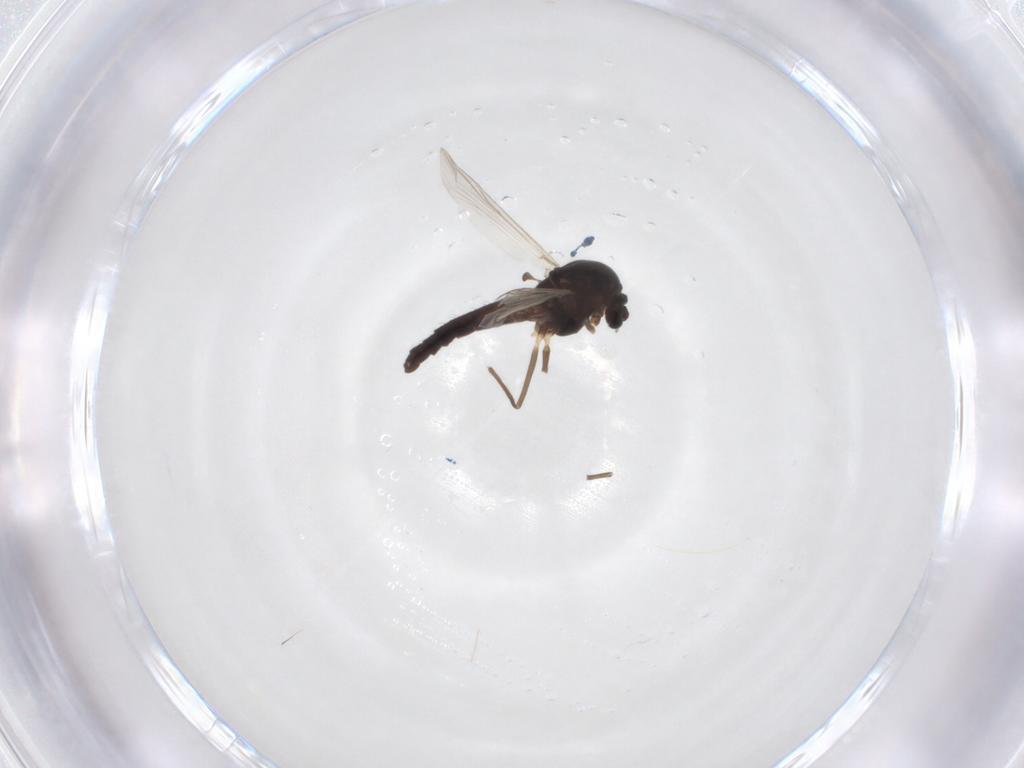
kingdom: Animalia
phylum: Arthropoda
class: Insecta
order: Diptera
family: Chironomidae
